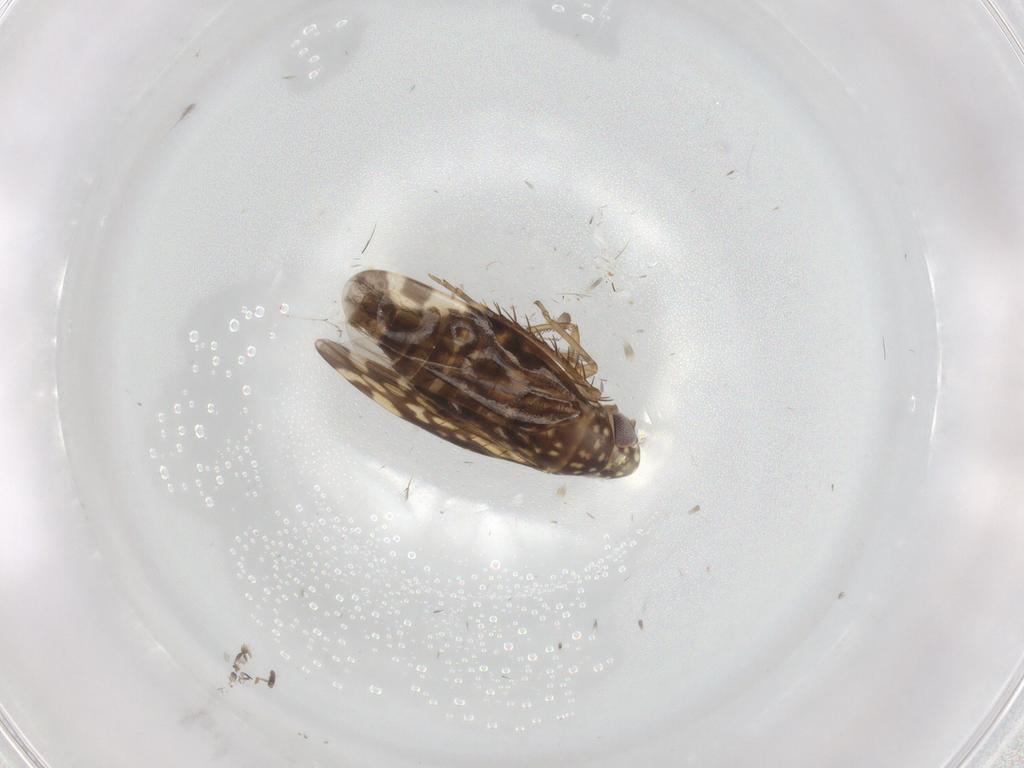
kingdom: Animalia
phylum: Arthropoda
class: Insecta
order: Hemiptera
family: Cicadellidae
